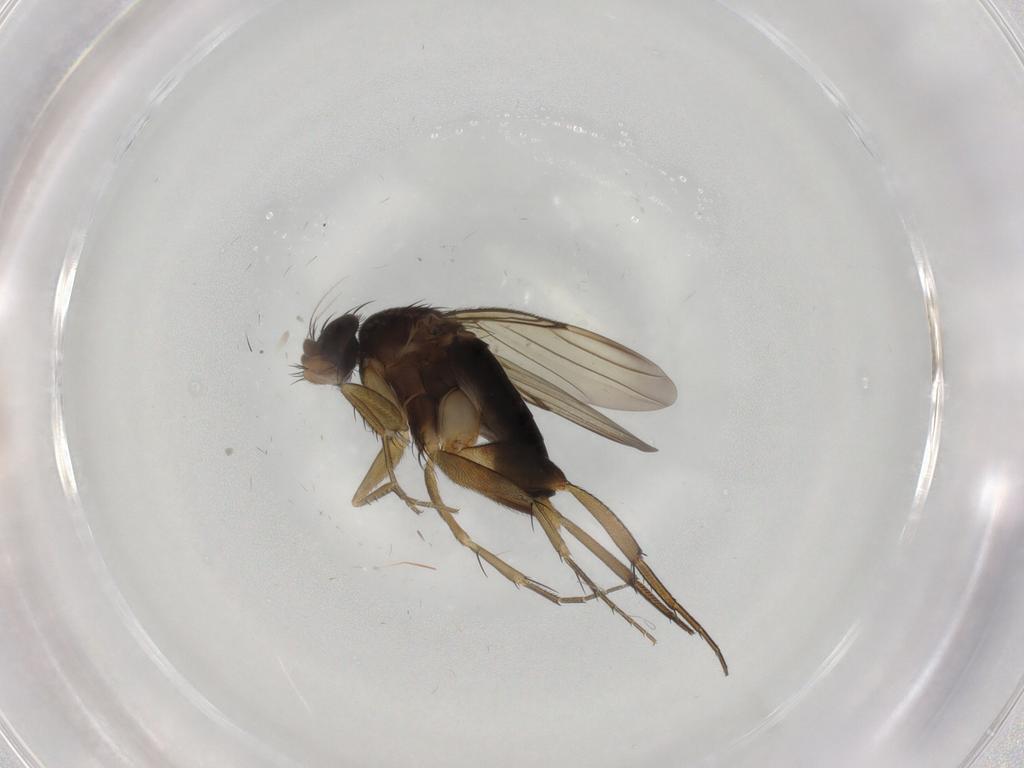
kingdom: Animalia
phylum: Arthropoda
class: Insecta
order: Diptera
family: Phoridae
